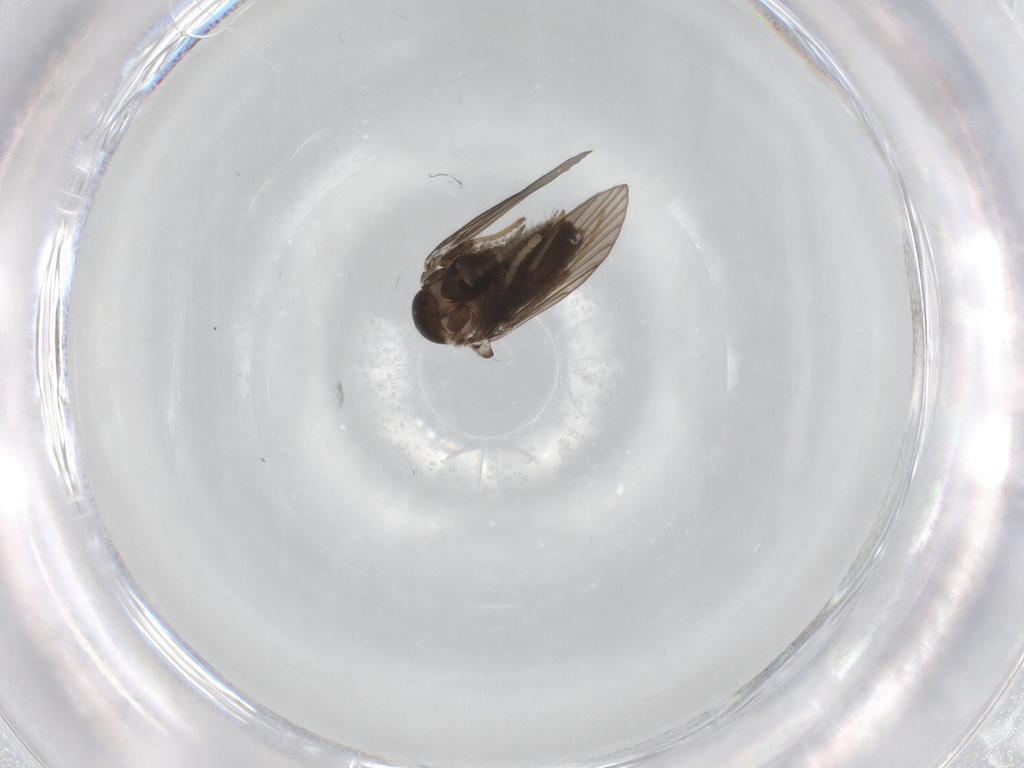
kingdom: Animalia
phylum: Arthropoda
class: Insecta
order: Diptera
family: Psychodidae
